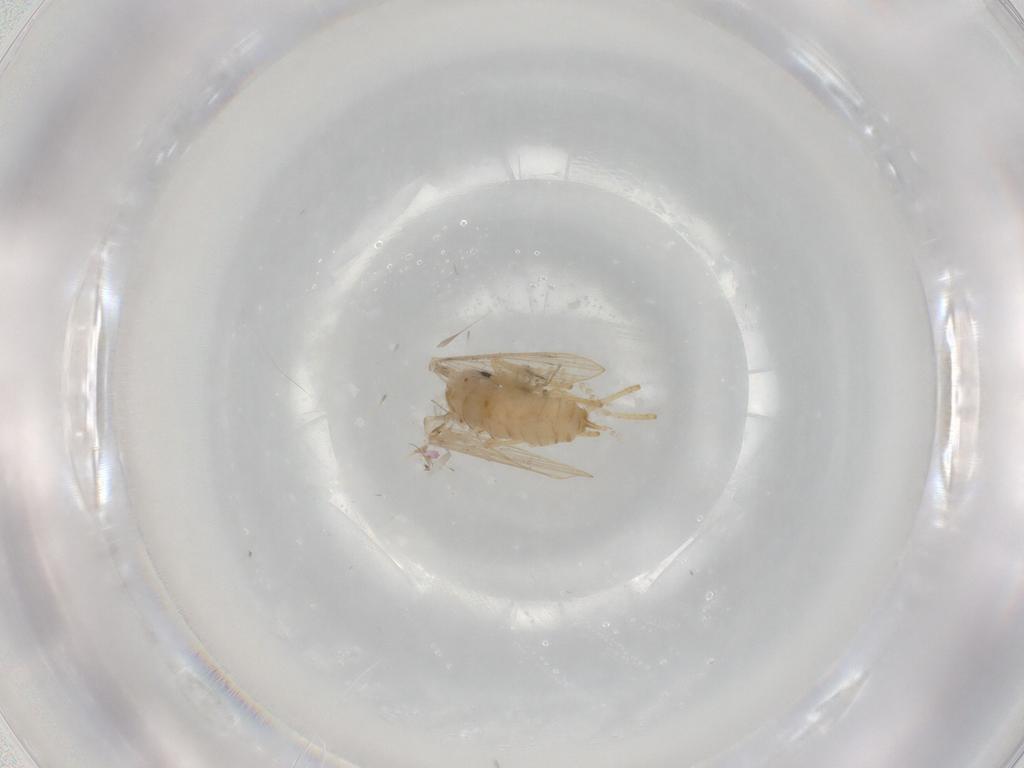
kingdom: Animalia
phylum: Arthropoda
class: Insecta
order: Diptera
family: Psychodidae
